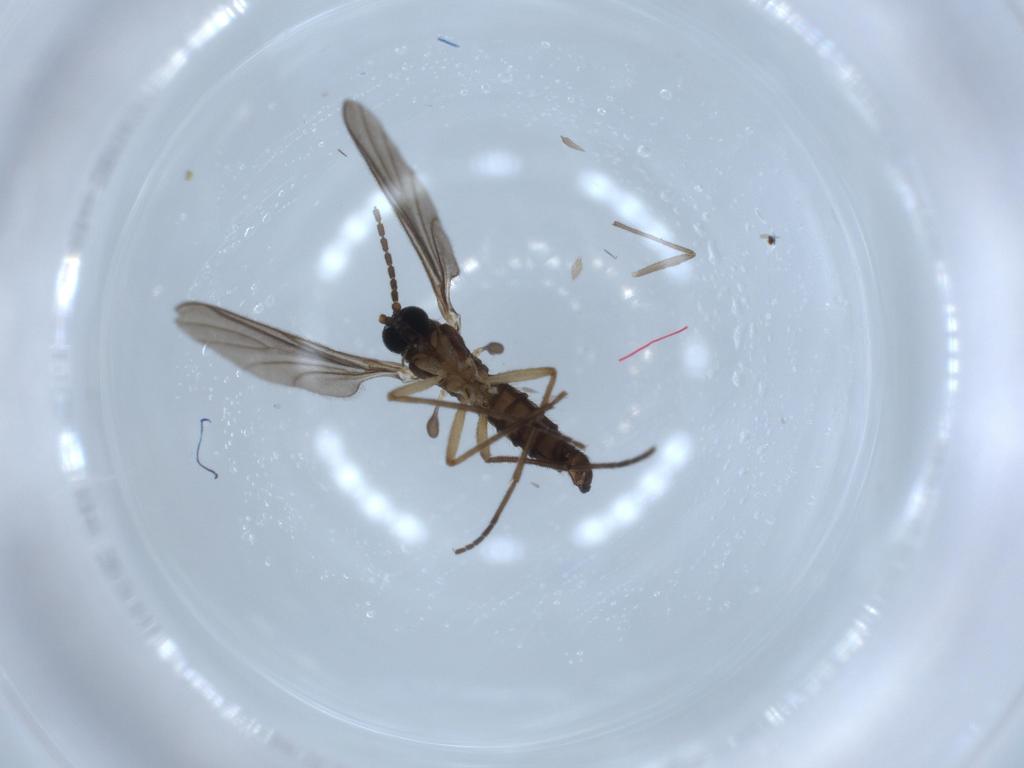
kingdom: Animalia
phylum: Arthropoda
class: Insecta
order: Diptera
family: Chironomidae
